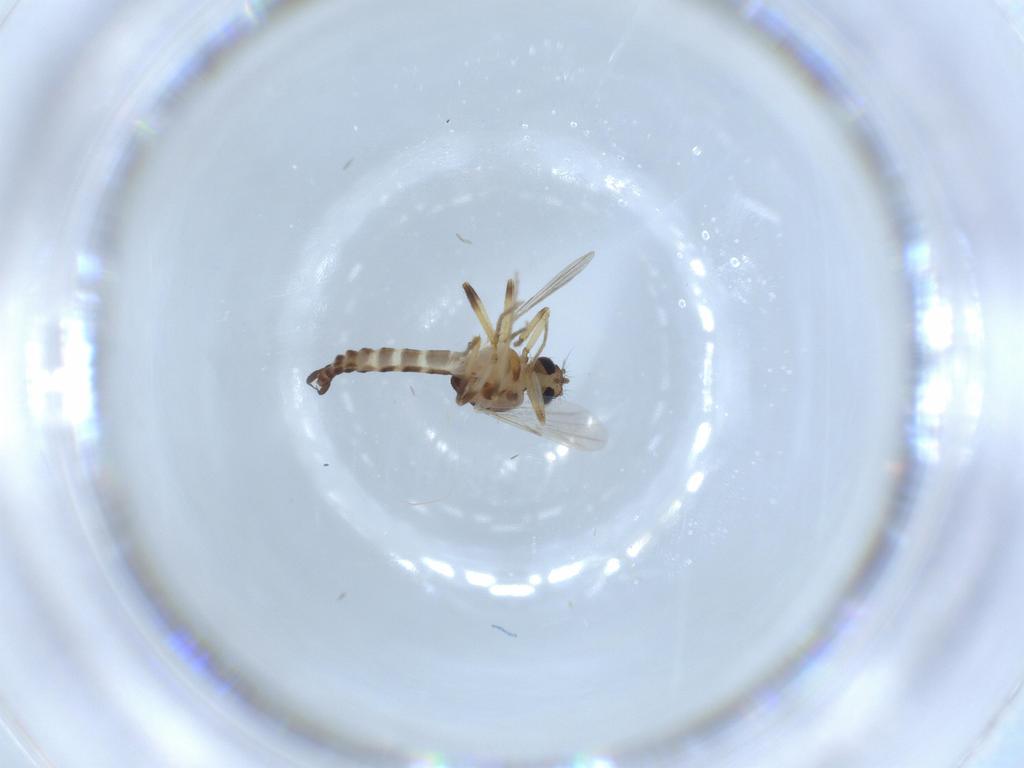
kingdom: Animalia
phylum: Arthropoda
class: Insecta
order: Diptera
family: Ceratopogonidae
